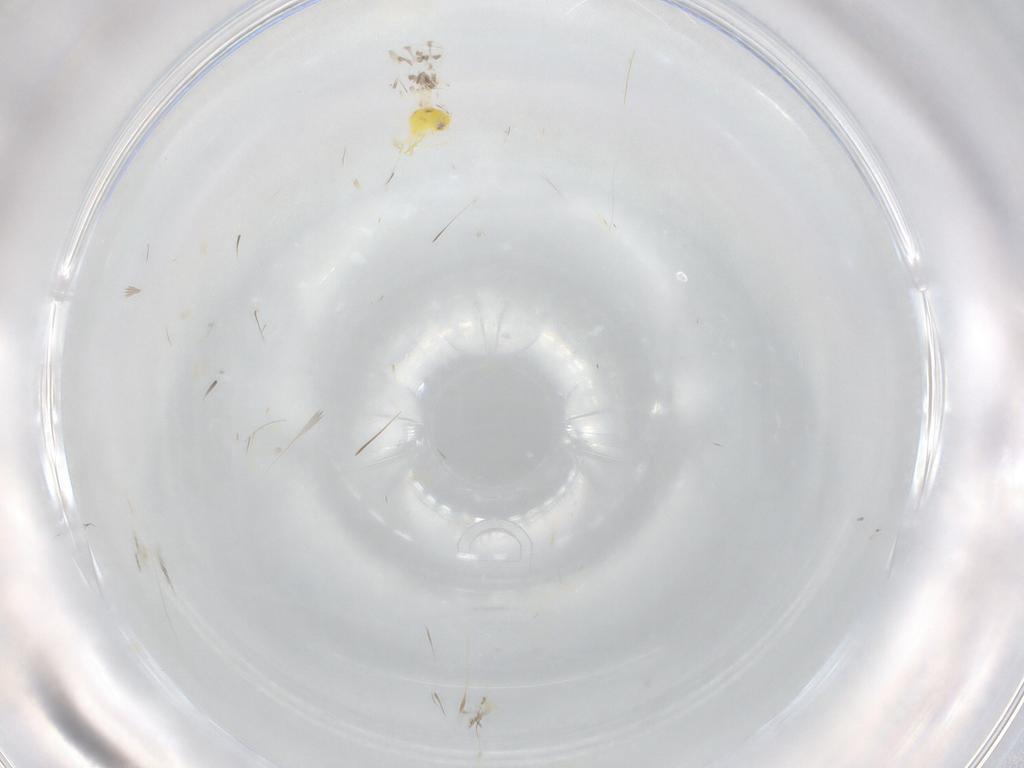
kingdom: Animalia
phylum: Arthropoda
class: Insecta
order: Hemiptera
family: Aleyrodidae
